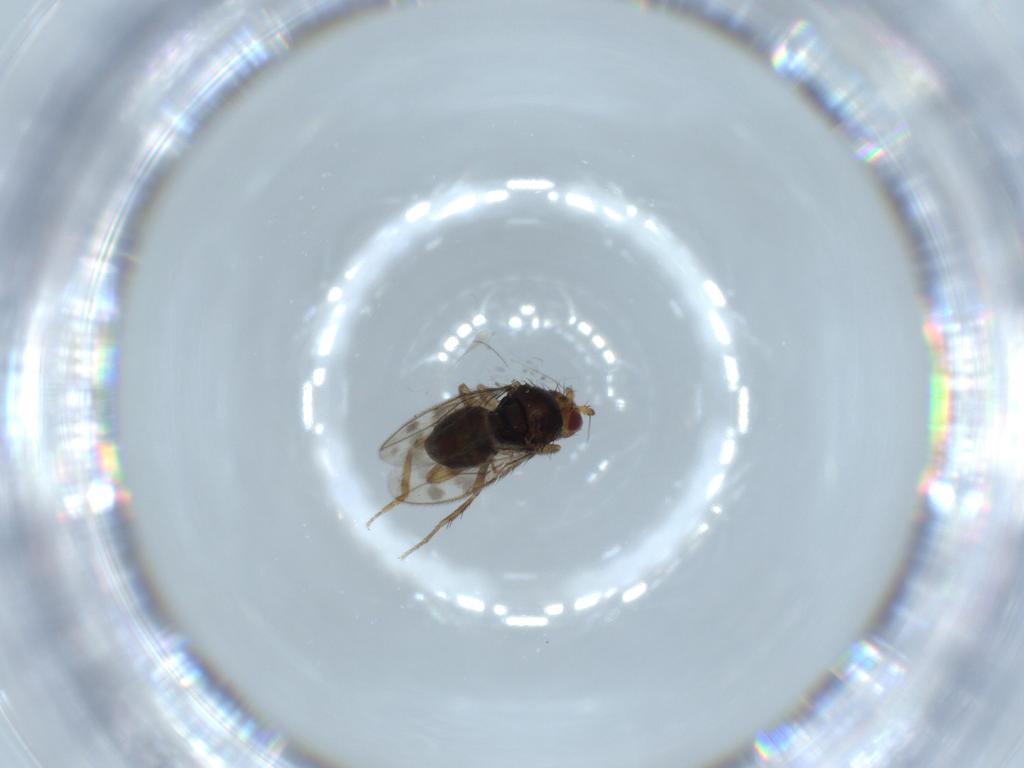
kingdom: Animalia
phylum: Arthropoda
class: Insecta
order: Diptera
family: Sphaeroceridae
